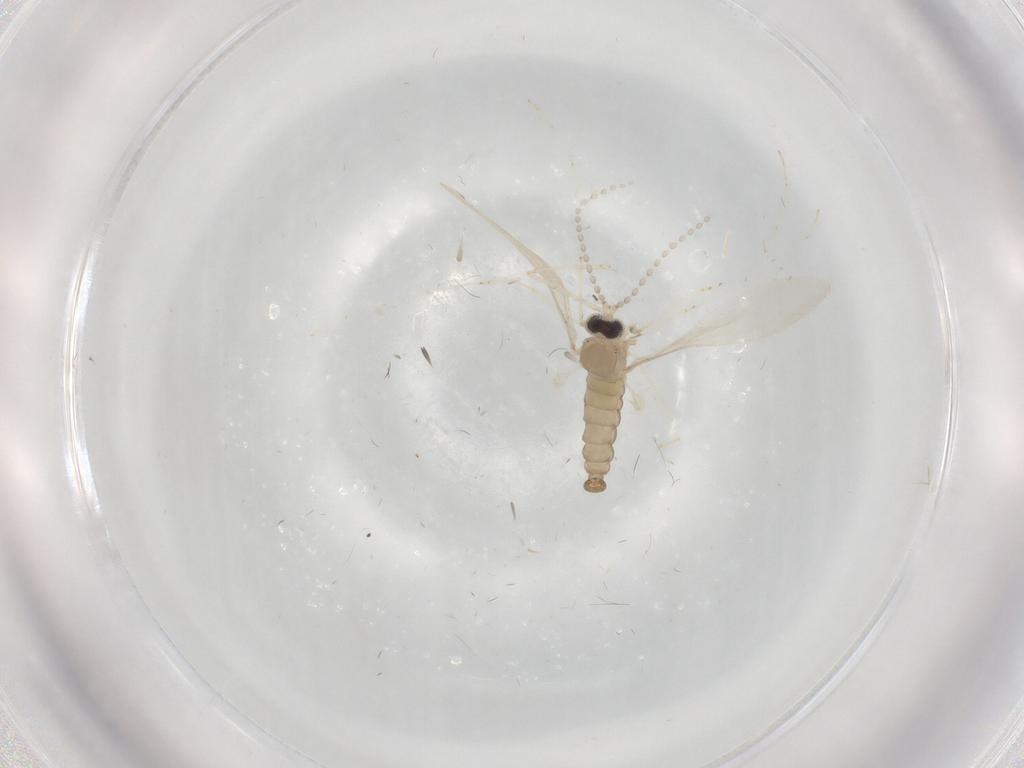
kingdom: Animalia
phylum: Arthropoda
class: Insecta
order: Diptera
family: Cecidomyiidae
